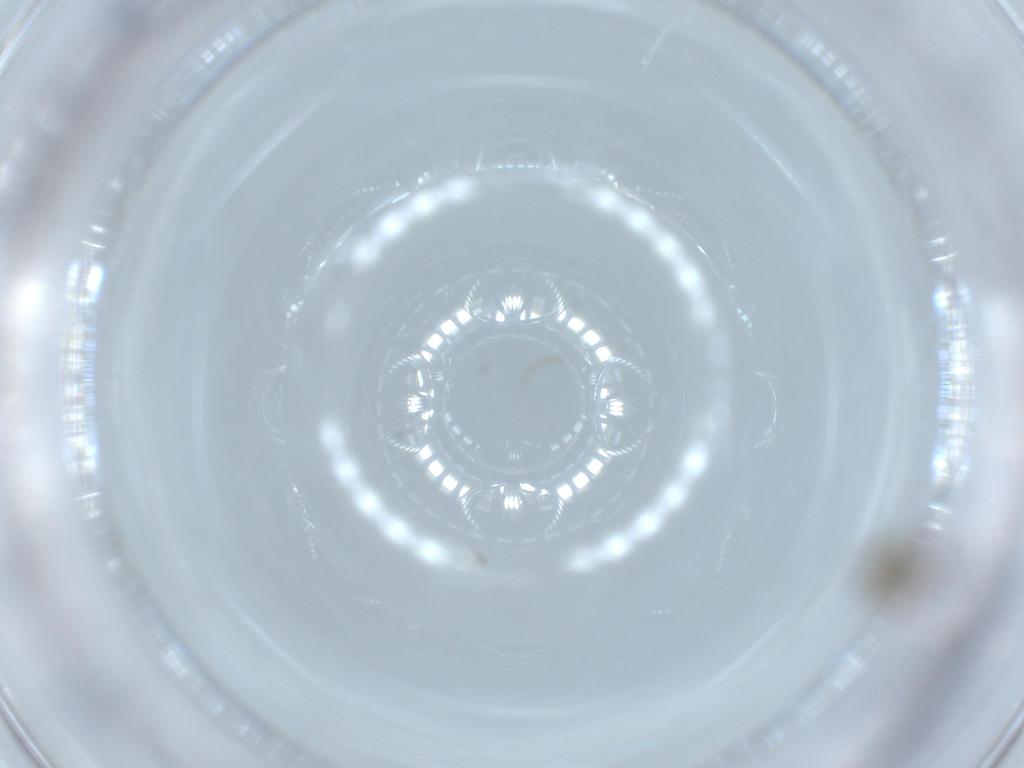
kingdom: Animalia
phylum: Arthropoda
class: Insecta
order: Diptera
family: Chironomidae
